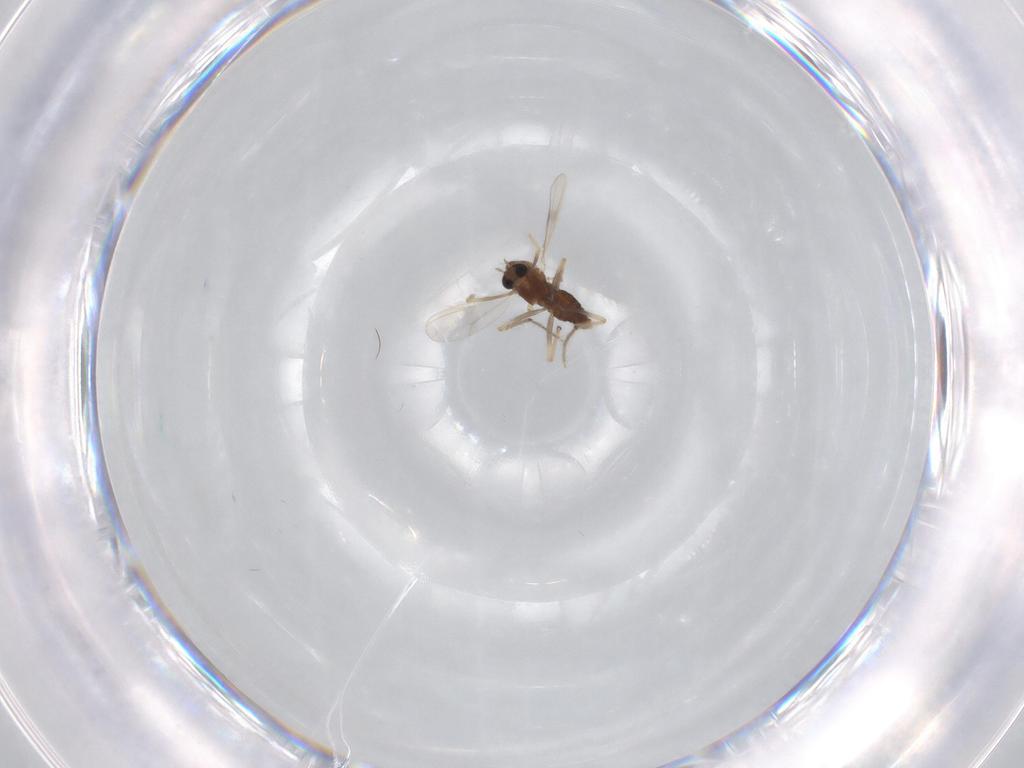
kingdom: Animalia
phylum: Arthropoda
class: Insecta
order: Diptera
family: Chironomidae
